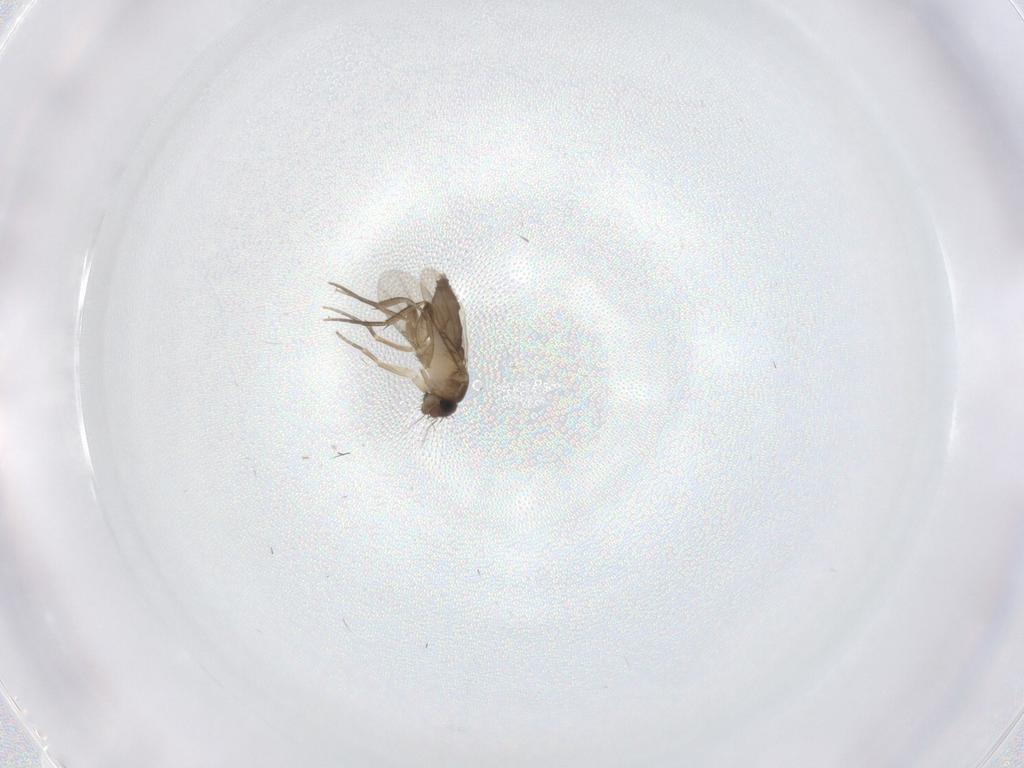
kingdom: Animalia
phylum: Arthropoda
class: Insecta
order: Diptera
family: Phoridae
